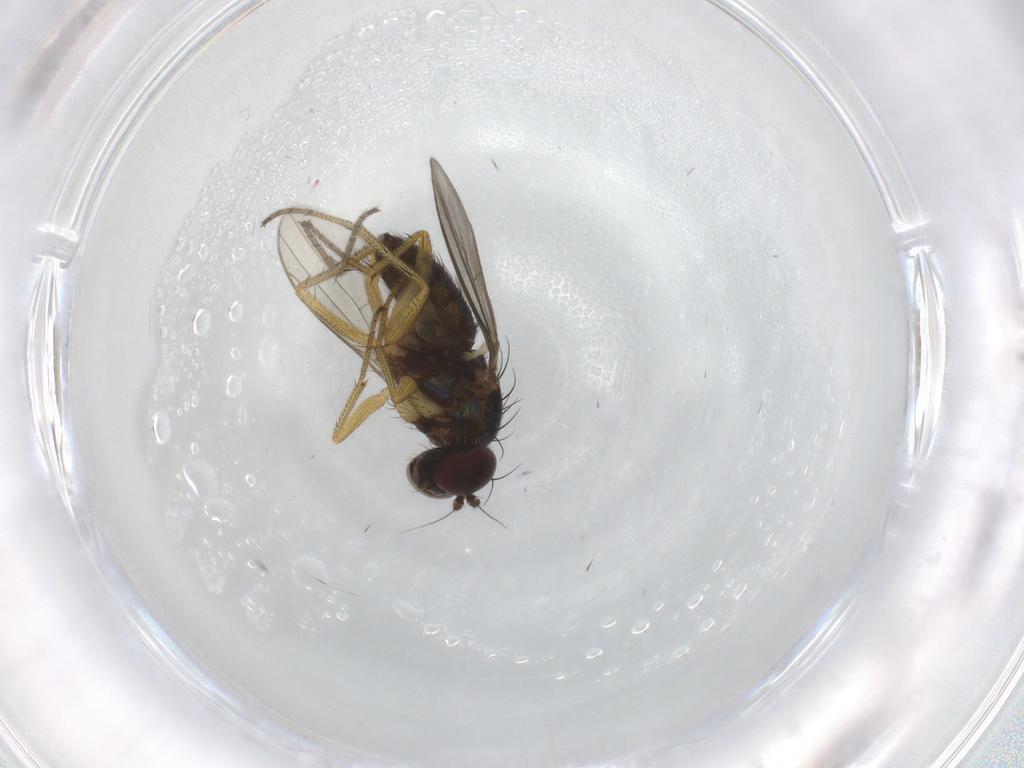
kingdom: Animalia
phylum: Arthropoda
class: Insecta
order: Diptera
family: Dolichopodidae
